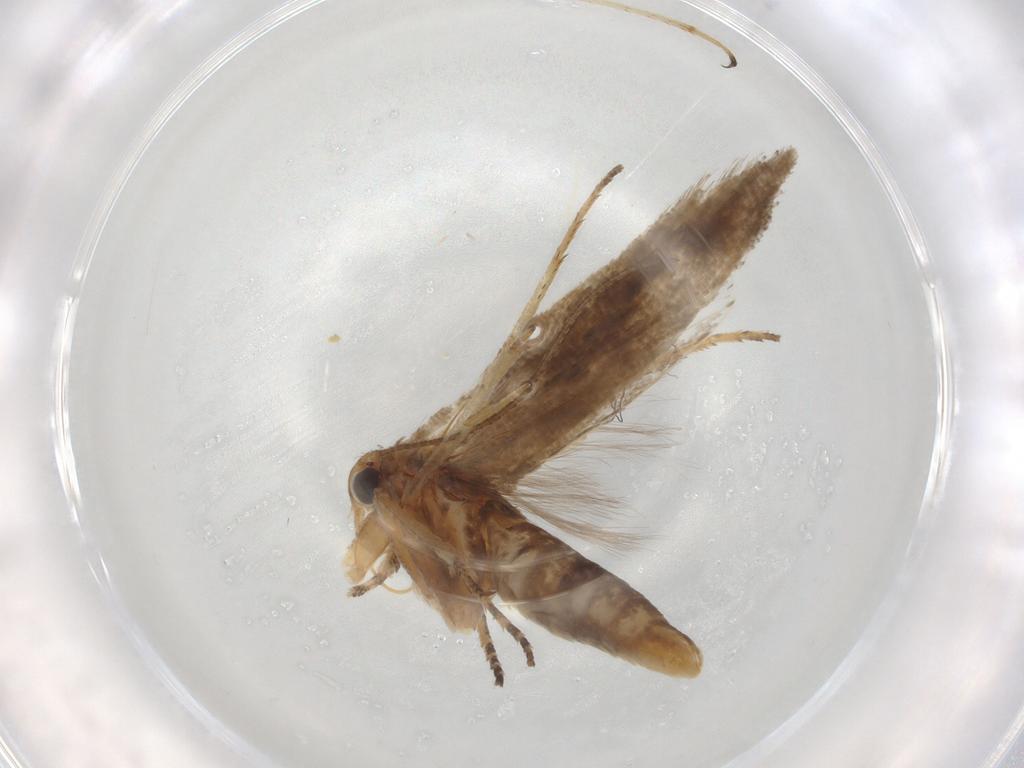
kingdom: Animalia
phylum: Arthropoda
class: Insecta
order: Lepidoptera
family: Gelechiidae
